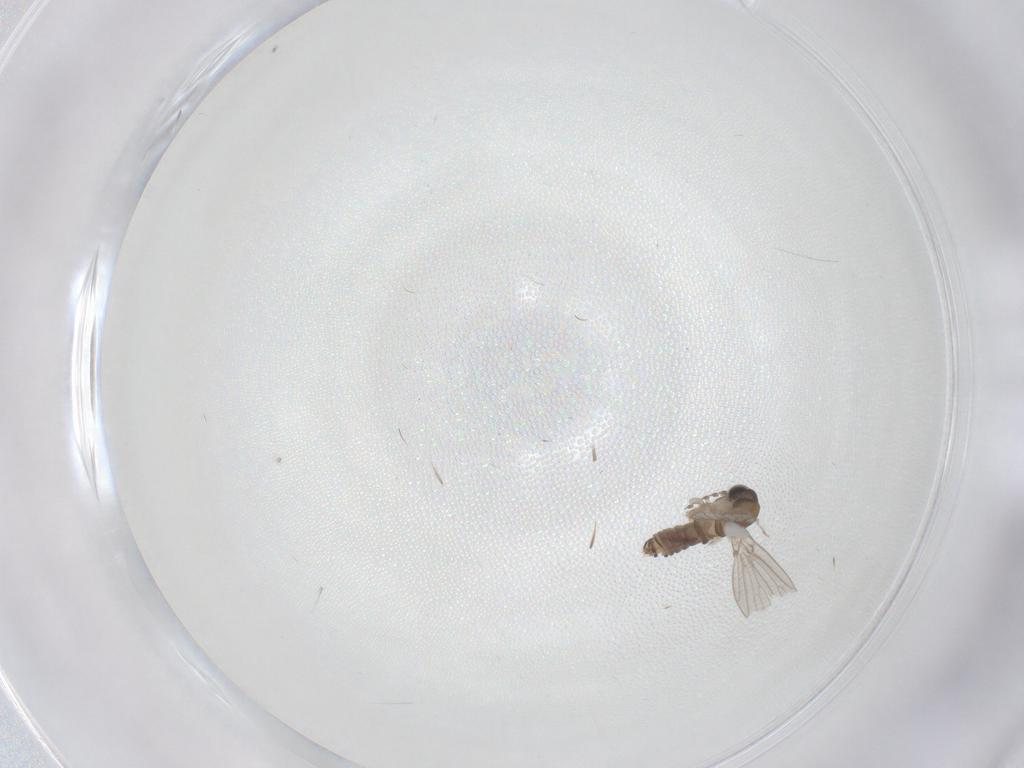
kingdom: Animalia
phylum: Arthropoda
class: Insecta
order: Diptera
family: Psychodidae
